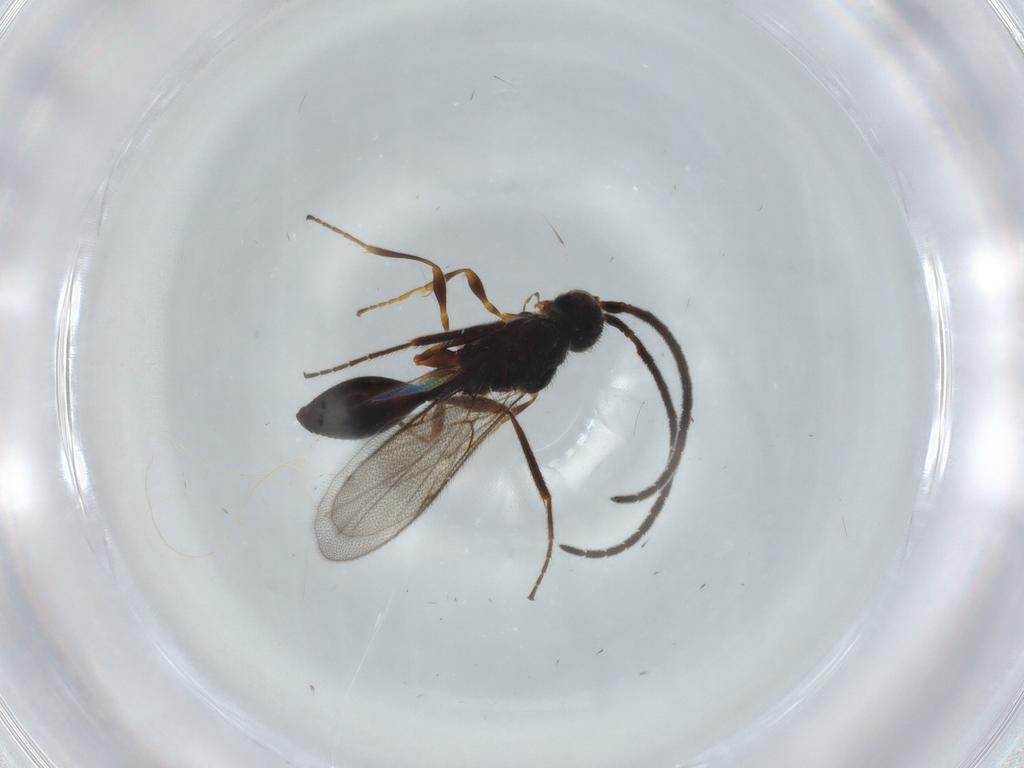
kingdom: Animalia
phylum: Arthropoda
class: Insecta
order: Hymenoptera
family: Diapriidae
